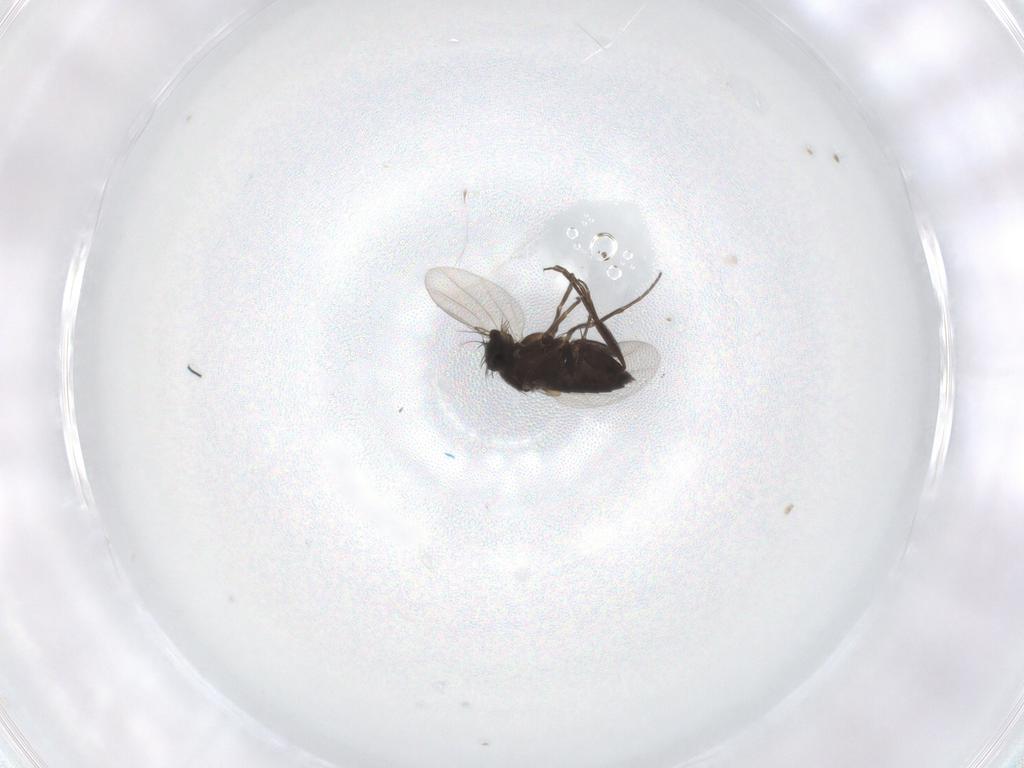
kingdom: Animalia
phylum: Arthropoda
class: Insecta
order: Diptera
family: Phoridae
